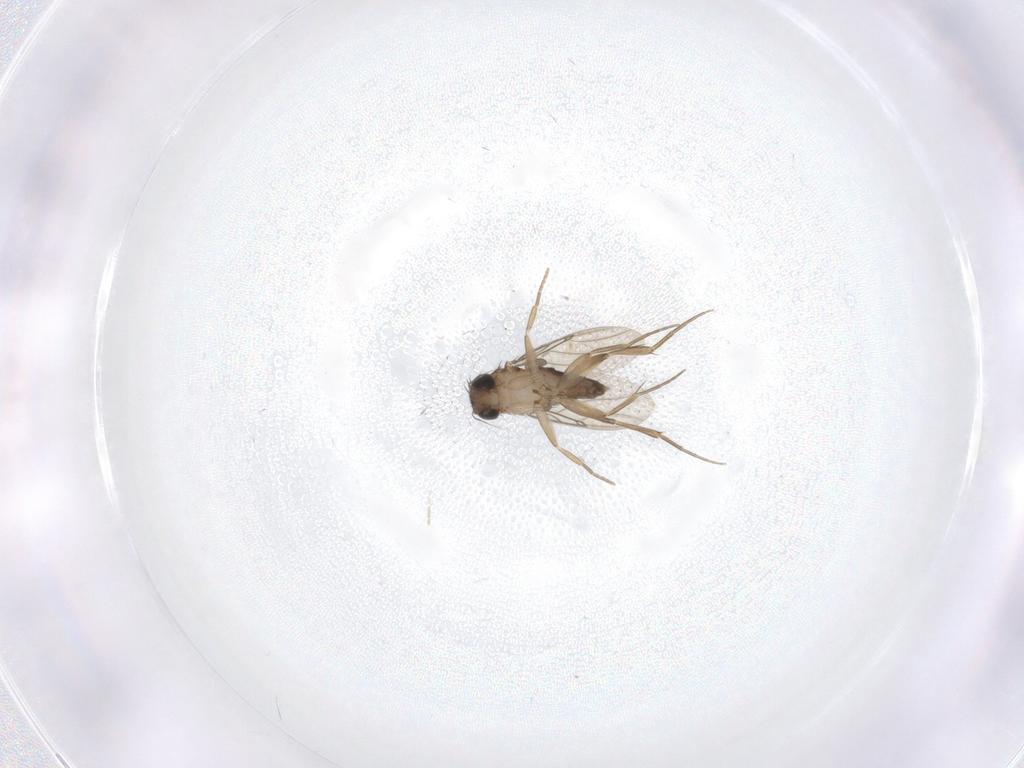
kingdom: Animalia
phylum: Arthropoda
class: Insecta
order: Diptera
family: Phoridae
